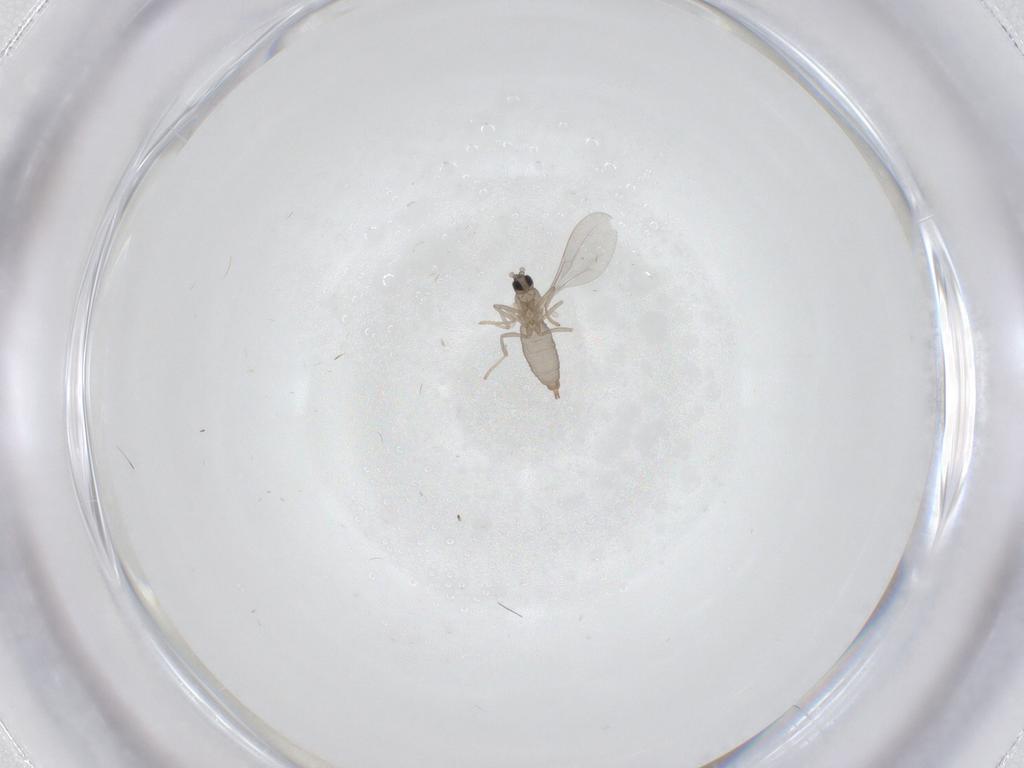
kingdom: Animalia
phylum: Arthropoda
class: Insecta
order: Diptera
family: Cecidomyiidae
